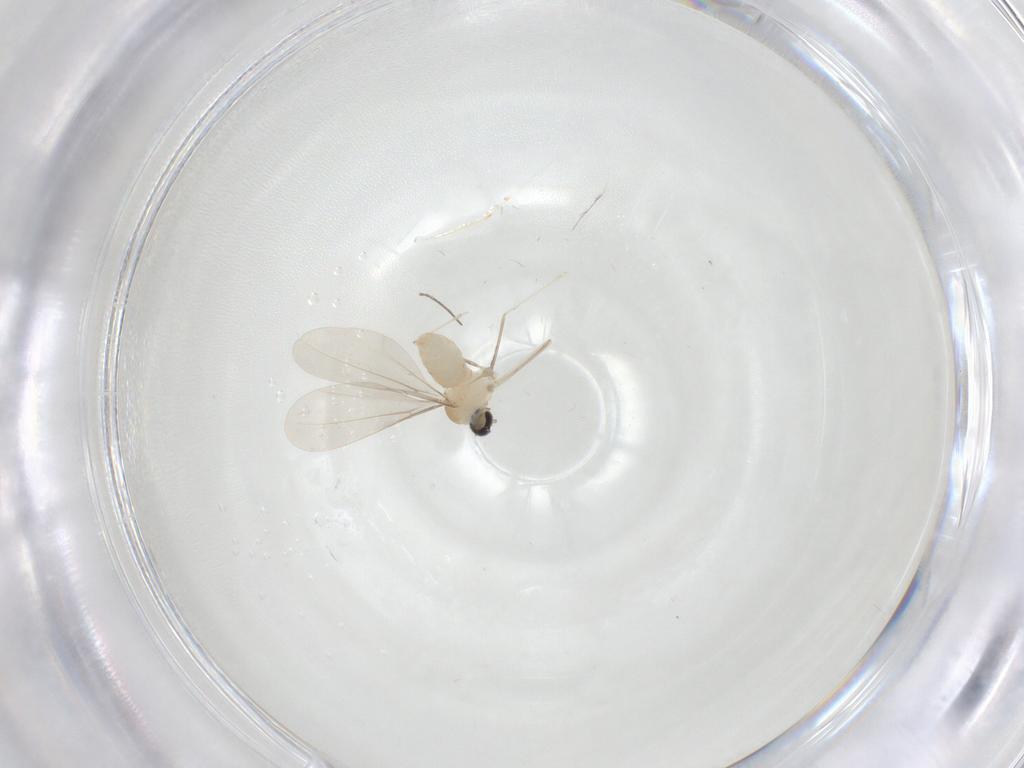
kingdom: Animalia
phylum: Arthropoda
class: Insecta
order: Diptera
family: Cecidomyiidae
